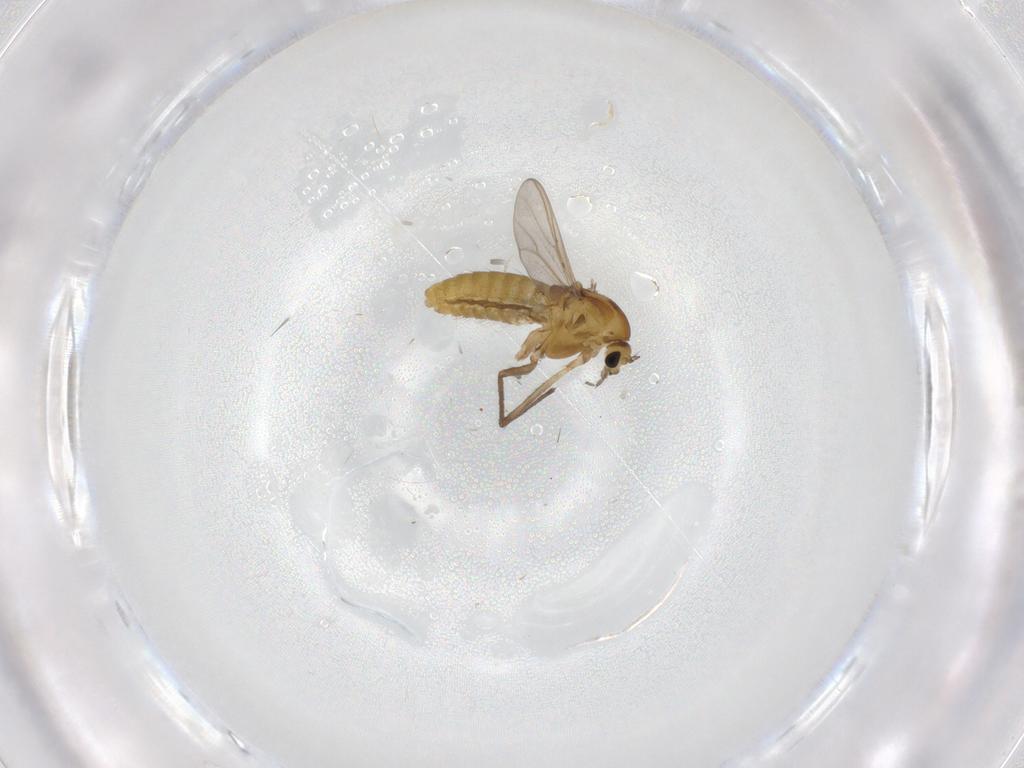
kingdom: Animalia
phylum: Arthropoda
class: Insecta
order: Diptera
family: Chironomidae
